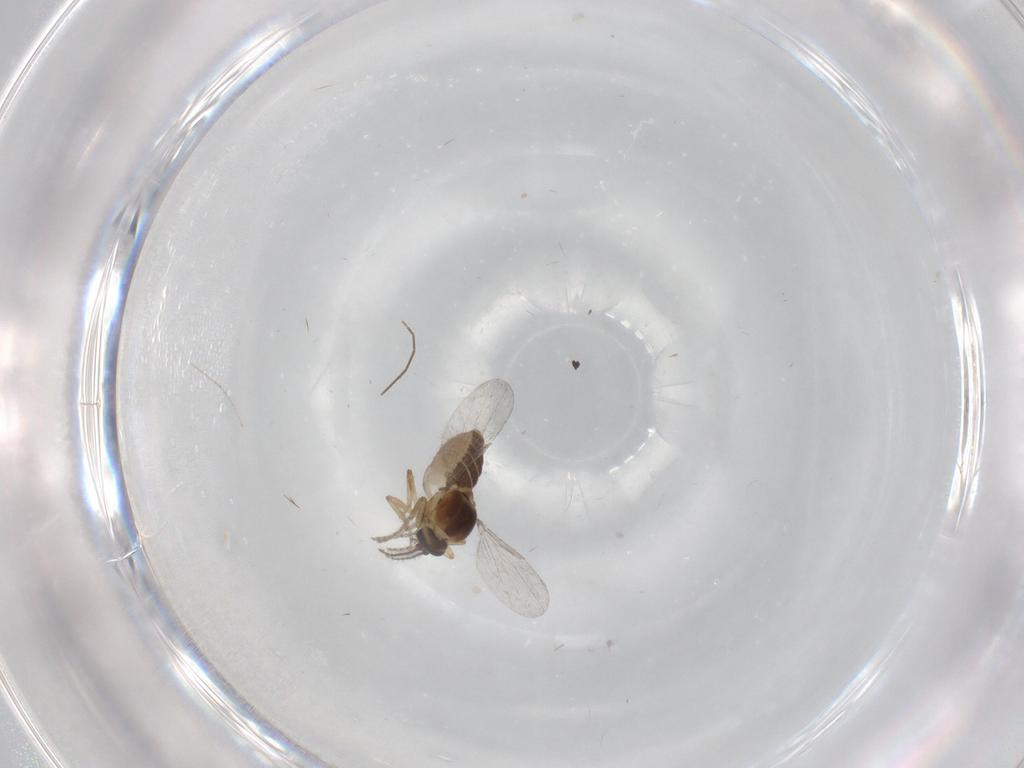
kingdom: Animalia
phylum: Arthropoda
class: Insecta
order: Diptera
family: Ceratopogonidae
